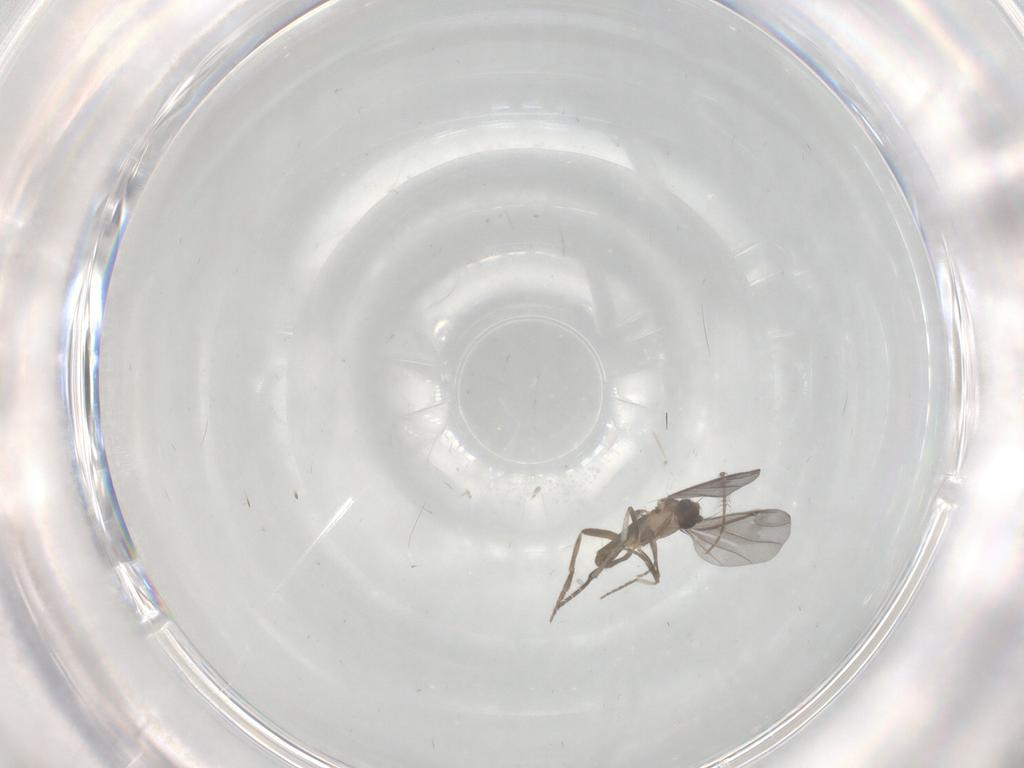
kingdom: Animalia
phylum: Arthropoda
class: Insecta
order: Diptera
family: Phoridae
